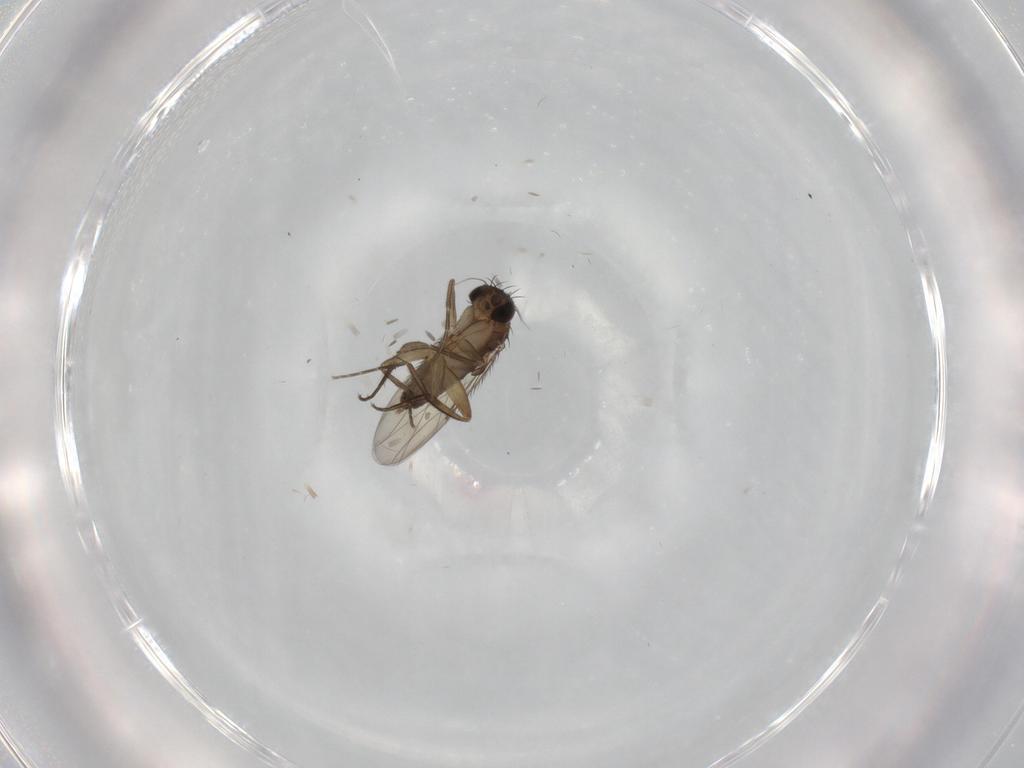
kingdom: Animalia
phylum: Arthropoda
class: Insecta
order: Diptera
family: Phoridae
